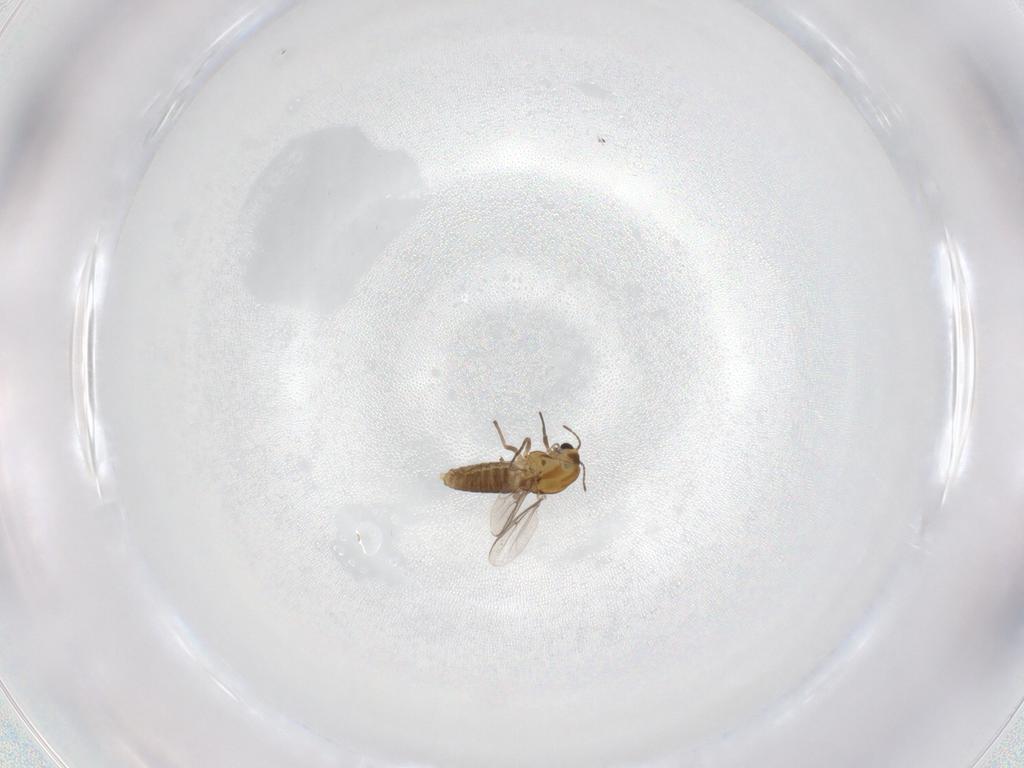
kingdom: Animalia
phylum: Arthropoda
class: Insecta
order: Diptera
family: Chironomidae
